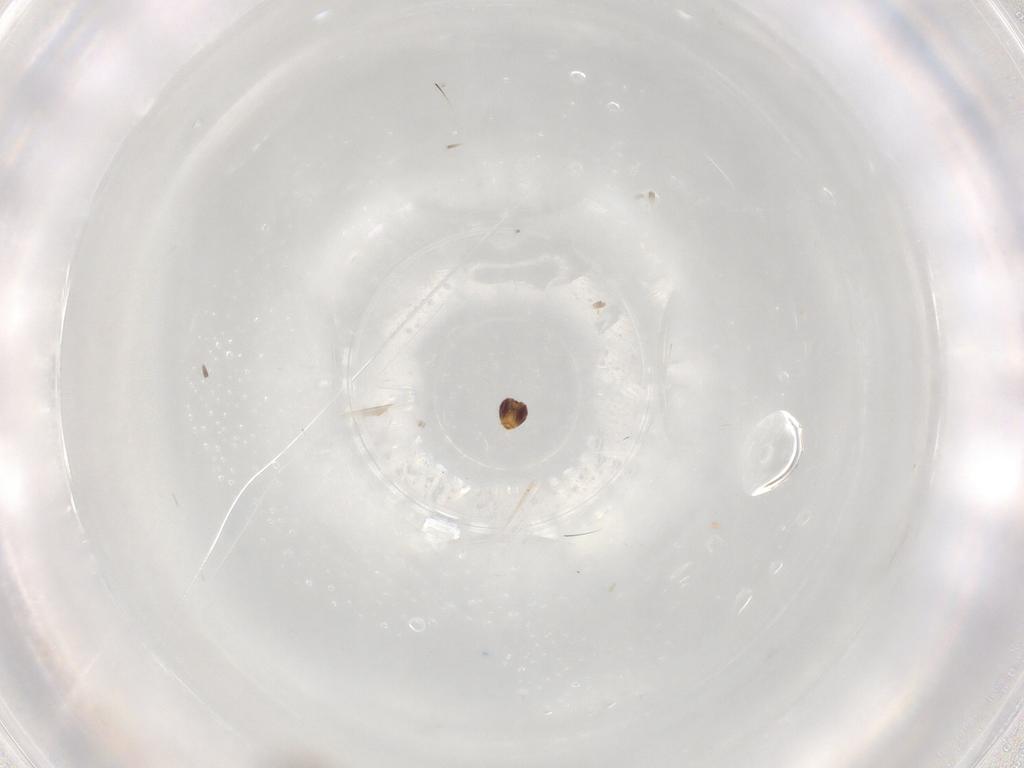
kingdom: Animalia
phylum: Arthropoda
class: Insecta
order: Diptera
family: Glossinidae
